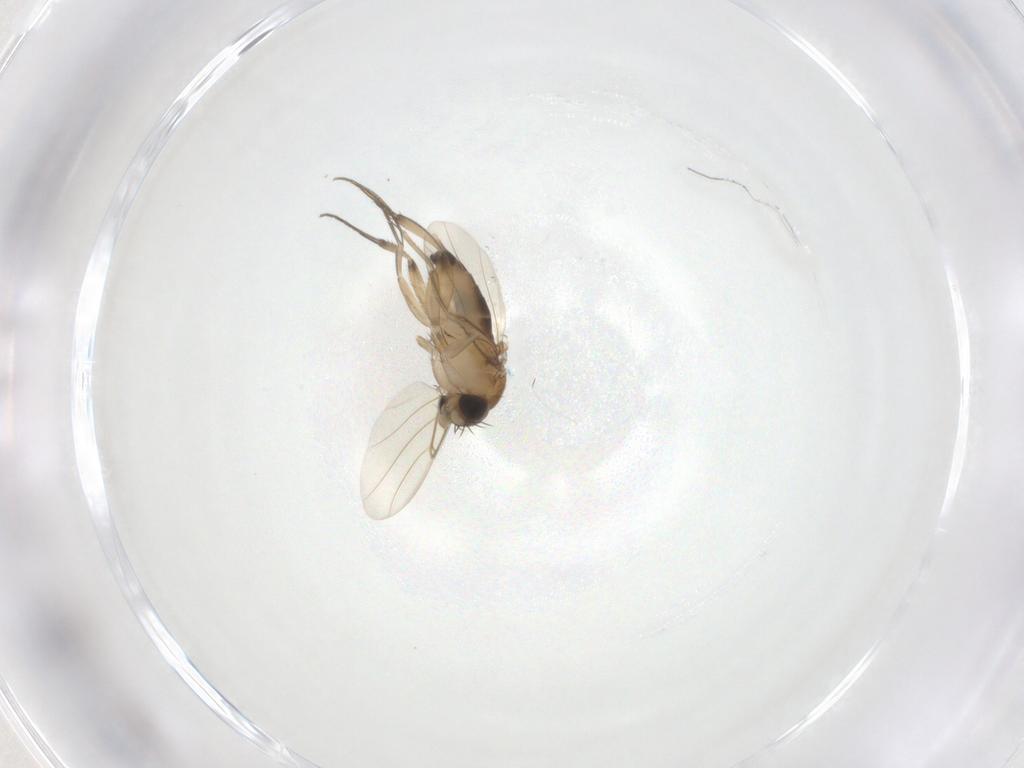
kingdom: Animalia
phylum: Arthropoda
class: Insecta
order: Diptera
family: Phoridae
